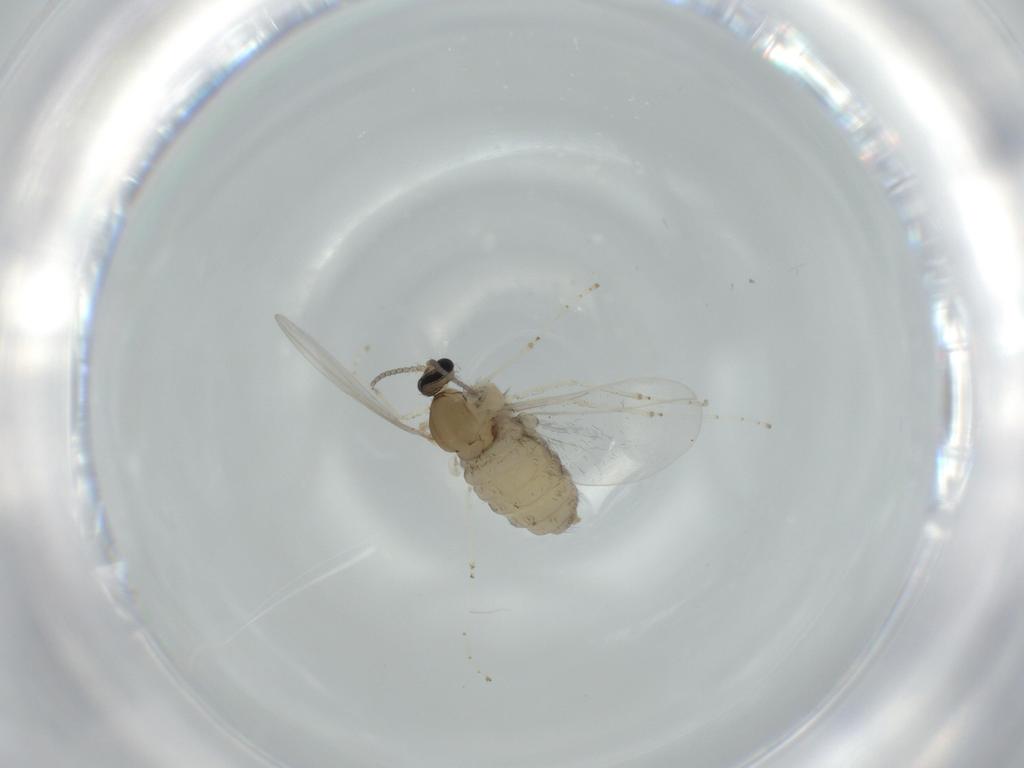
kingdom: Animalia
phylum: Arthropoda
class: Insecta
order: Diptera
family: Cecidomyiidae
